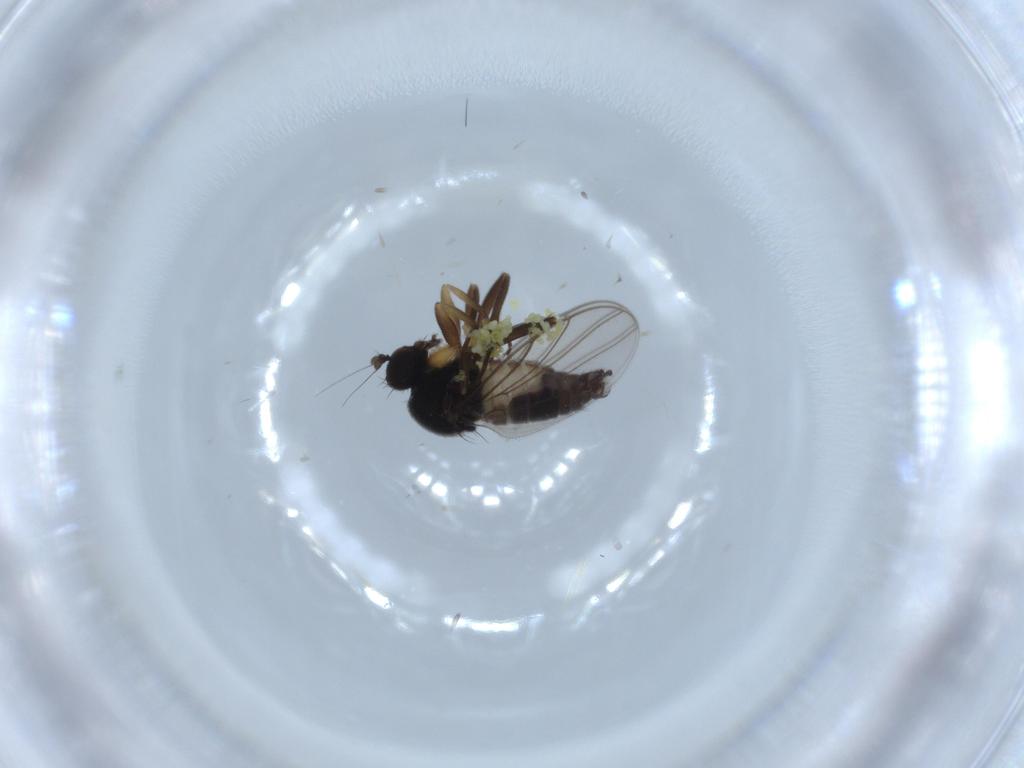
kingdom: Animalia
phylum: Arthropoda
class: Insecta
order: Diptera
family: Hybotidae
